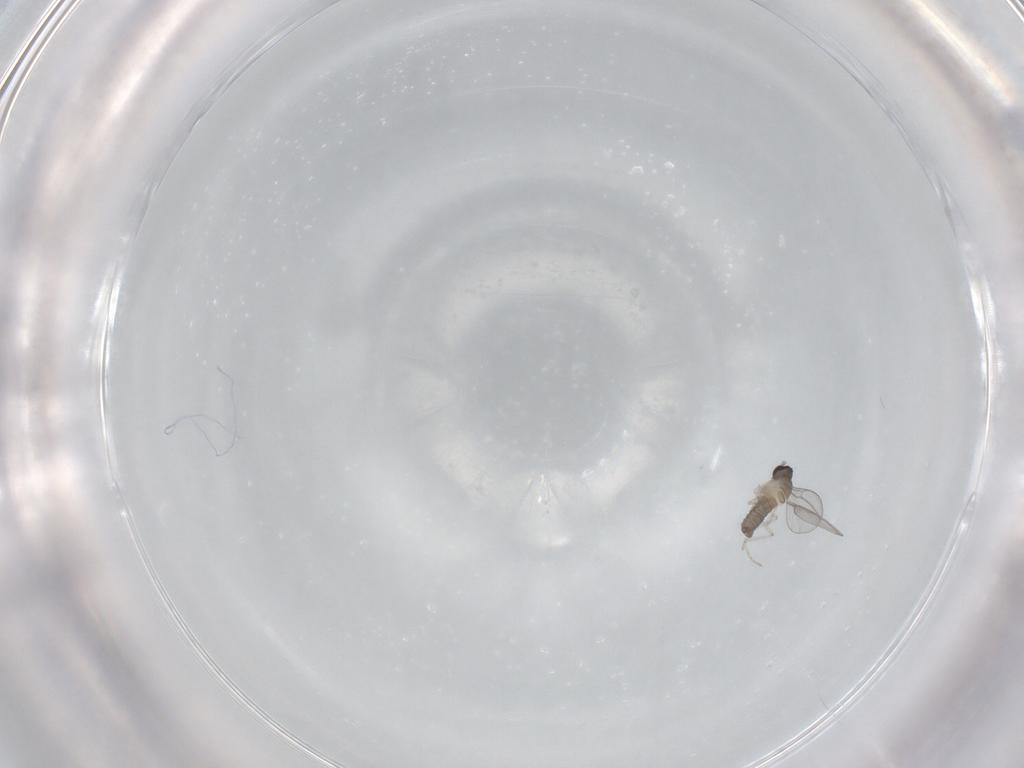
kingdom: Animalia
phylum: Arthropoda
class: Insecta
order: Diptera
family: Cecidomyiidae
